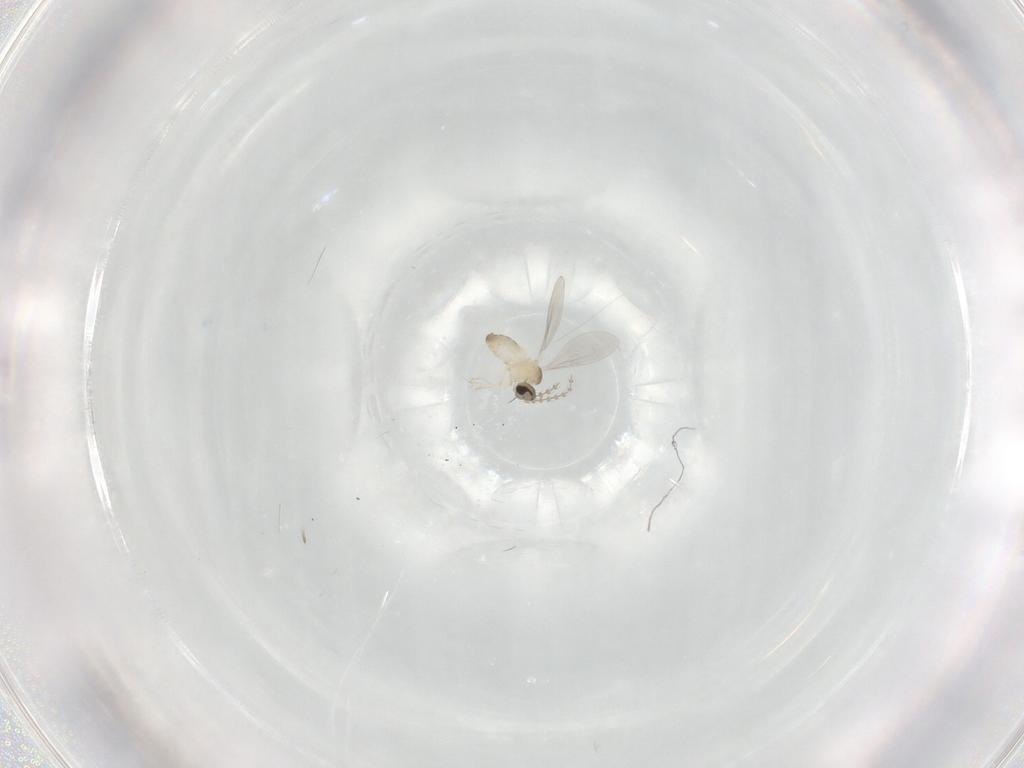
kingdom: Animalia
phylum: Arthropoda
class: Insecta
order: Diptera
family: Cecidomyiidae
